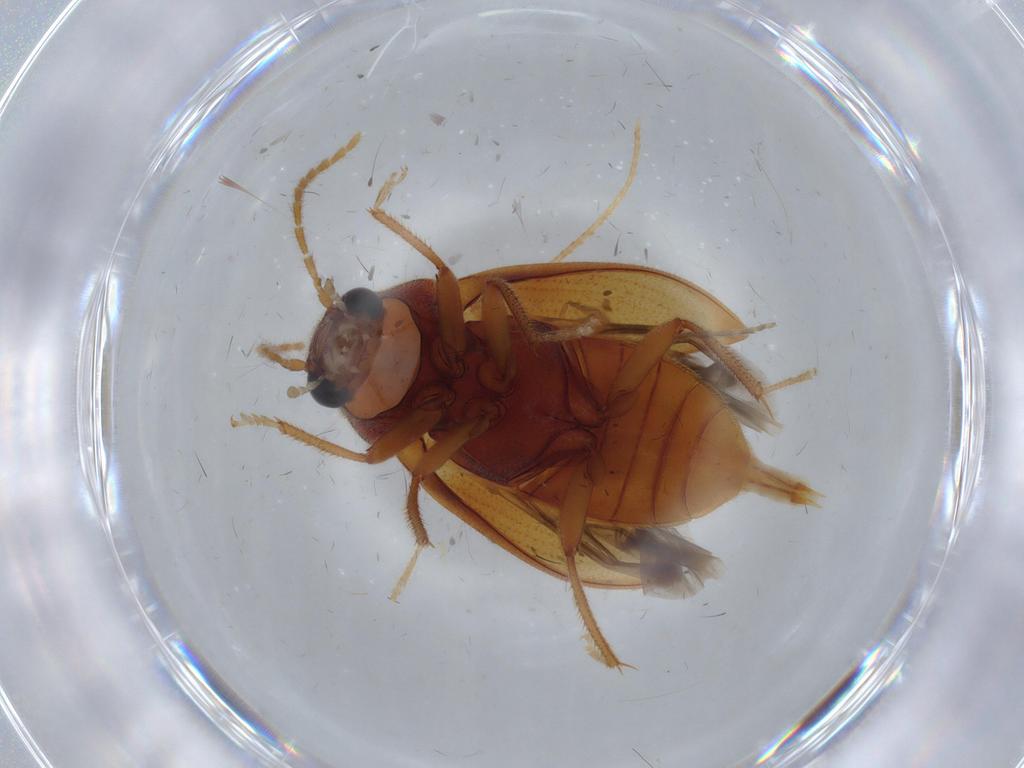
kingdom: Animalia
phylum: Arthropoda
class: Insecta
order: Coleoptera
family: Ptilodactylidae
